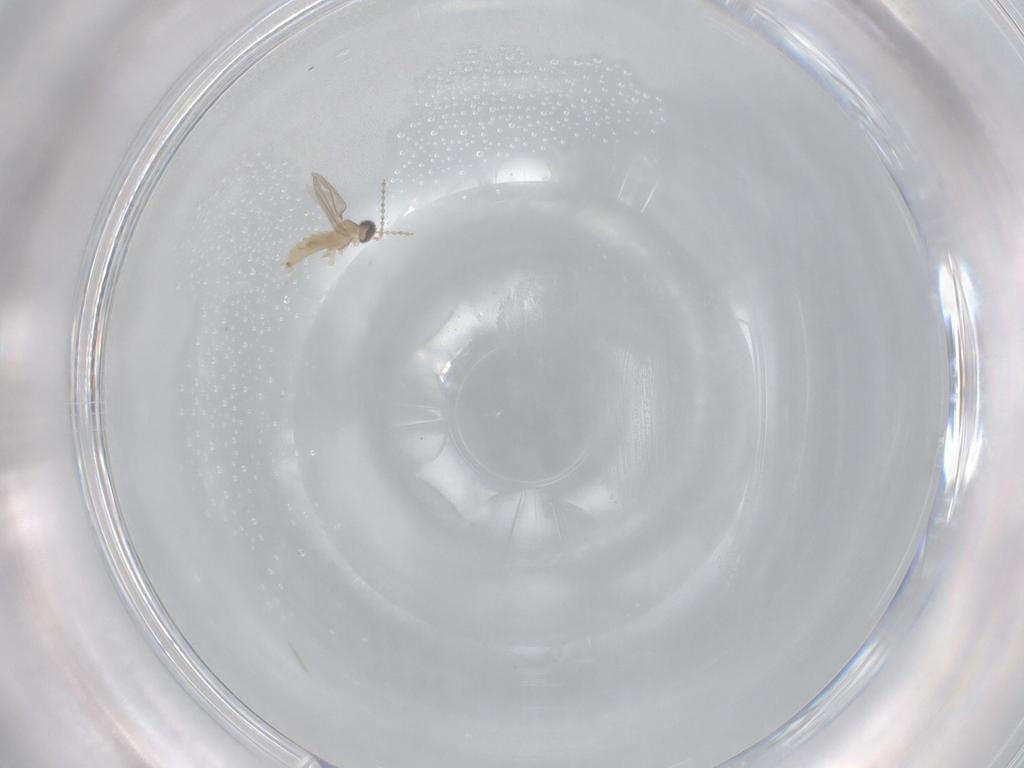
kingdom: Animalia
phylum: Arthropoda
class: Insecta
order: Diptera
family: Cecidomyiidae
